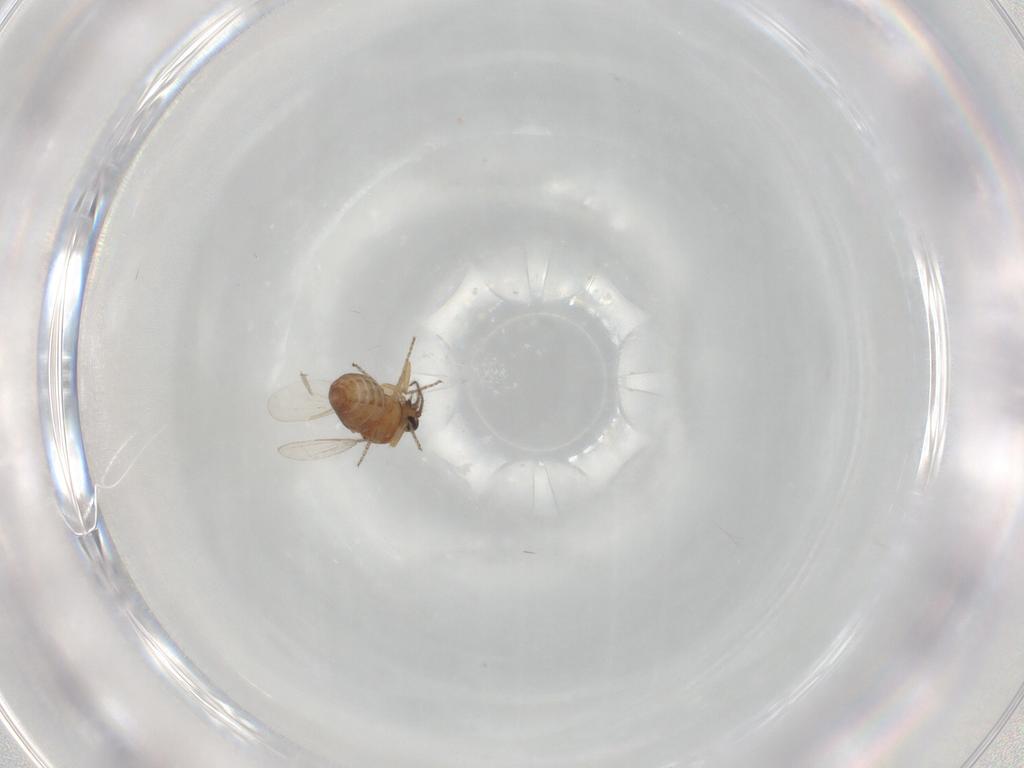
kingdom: Animalia
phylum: Arthropoda
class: Insecta
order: Diptera
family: Ceratopogonidae
